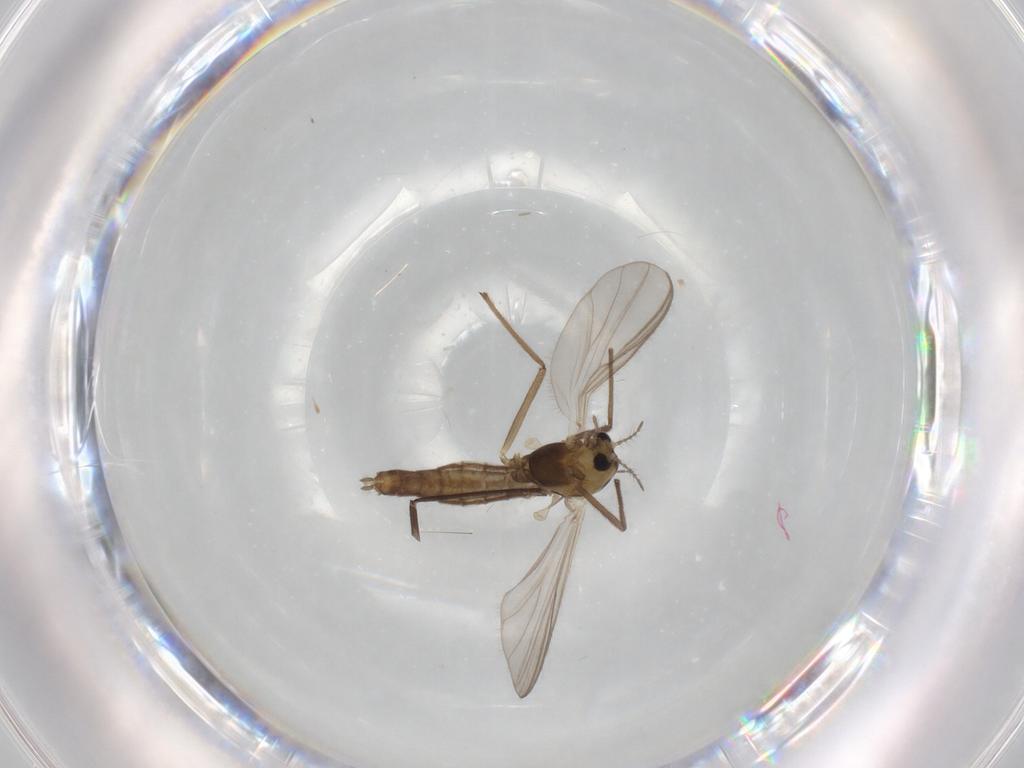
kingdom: Animalia
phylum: Arthropoda
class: Insecta
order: Diptera
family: Chironomidae
